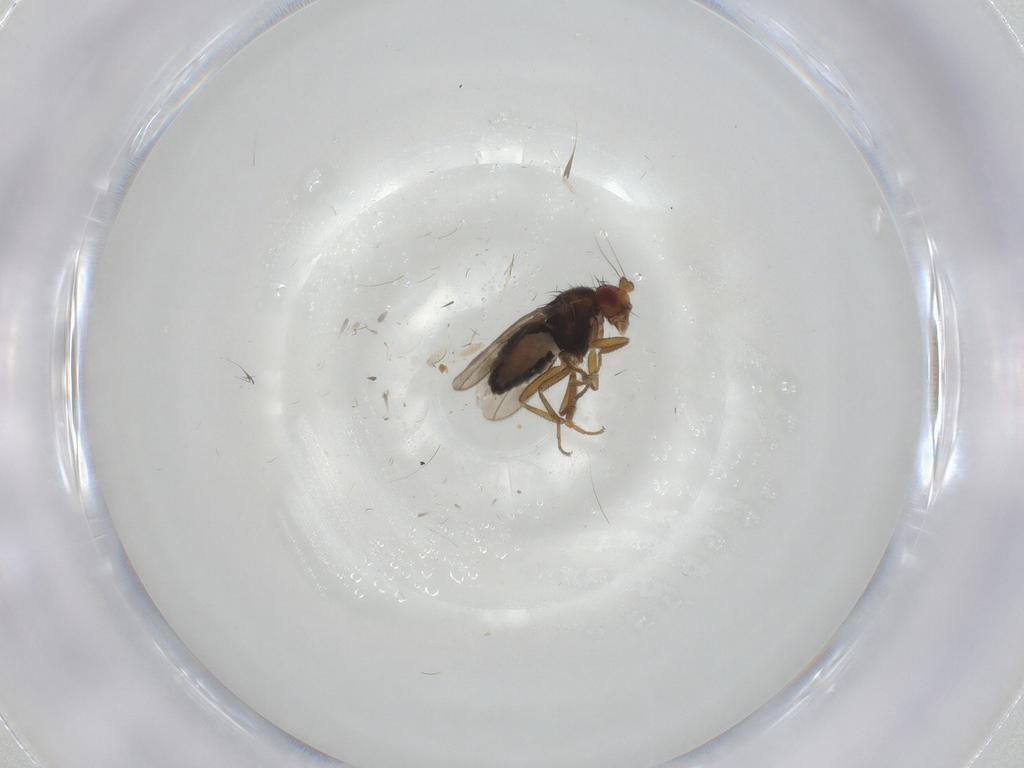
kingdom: Animalia
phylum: Arthropoda
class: Insecta
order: Diptera
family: Sphaeroceridae
